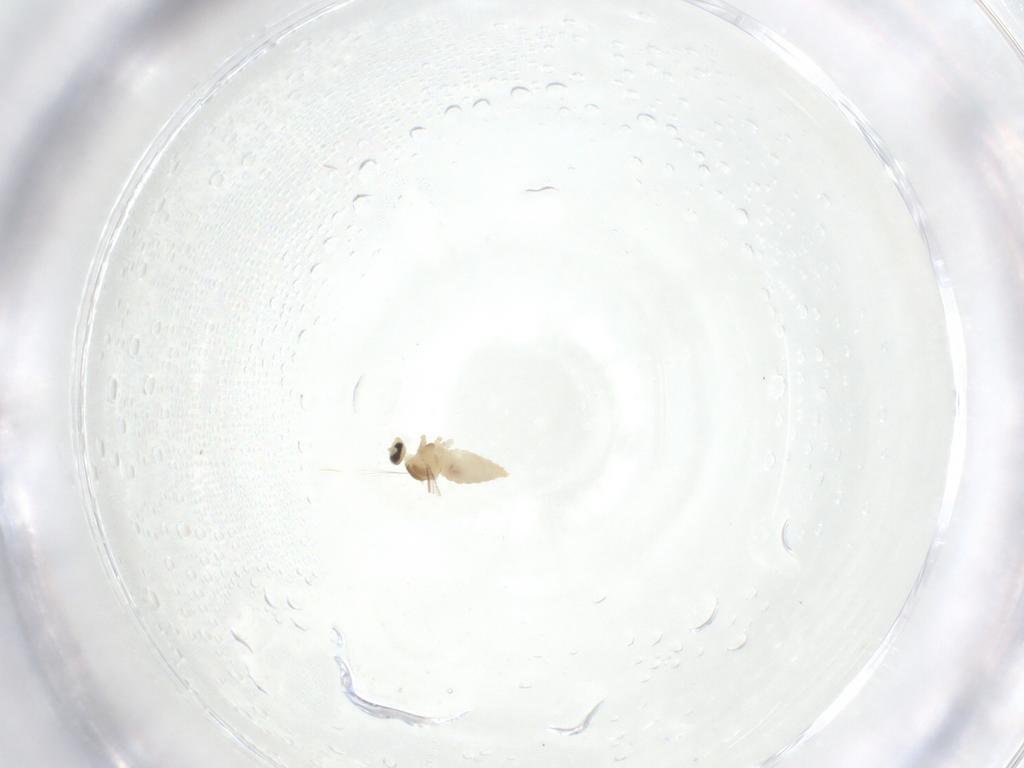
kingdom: Animalia
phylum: Arthropoda
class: Insecta
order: Diptera
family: Cecidomyiidae
